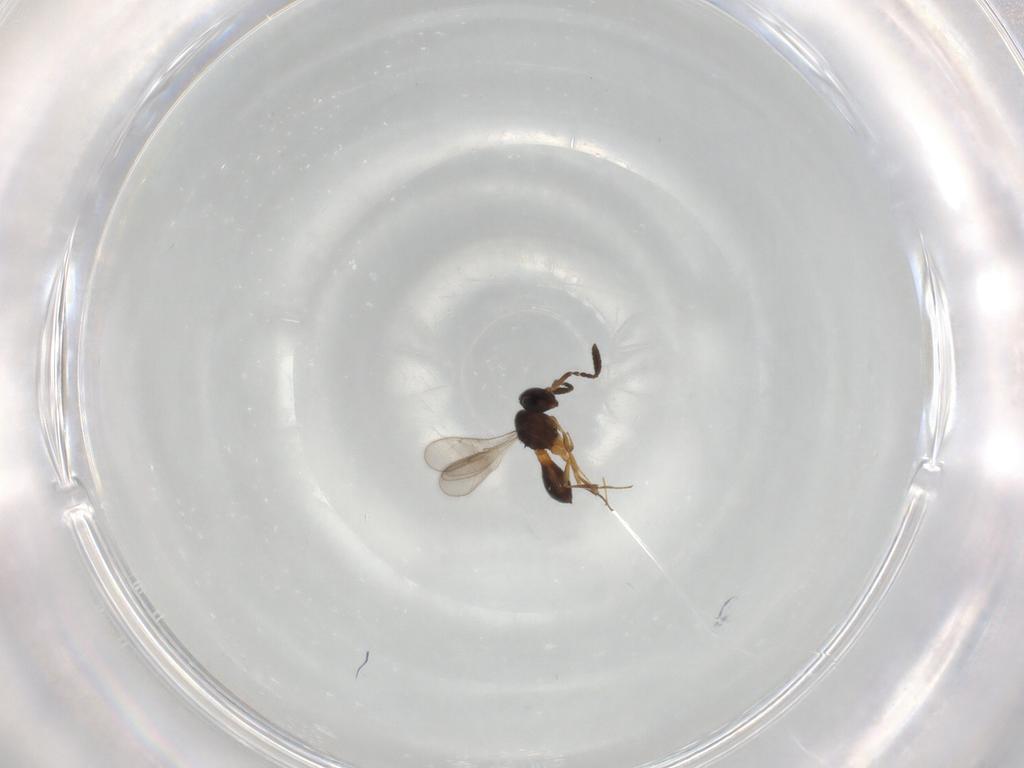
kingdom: Animalia
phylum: Arthropoda
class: Insecta
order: Hymenoptera
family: Scelionidae
